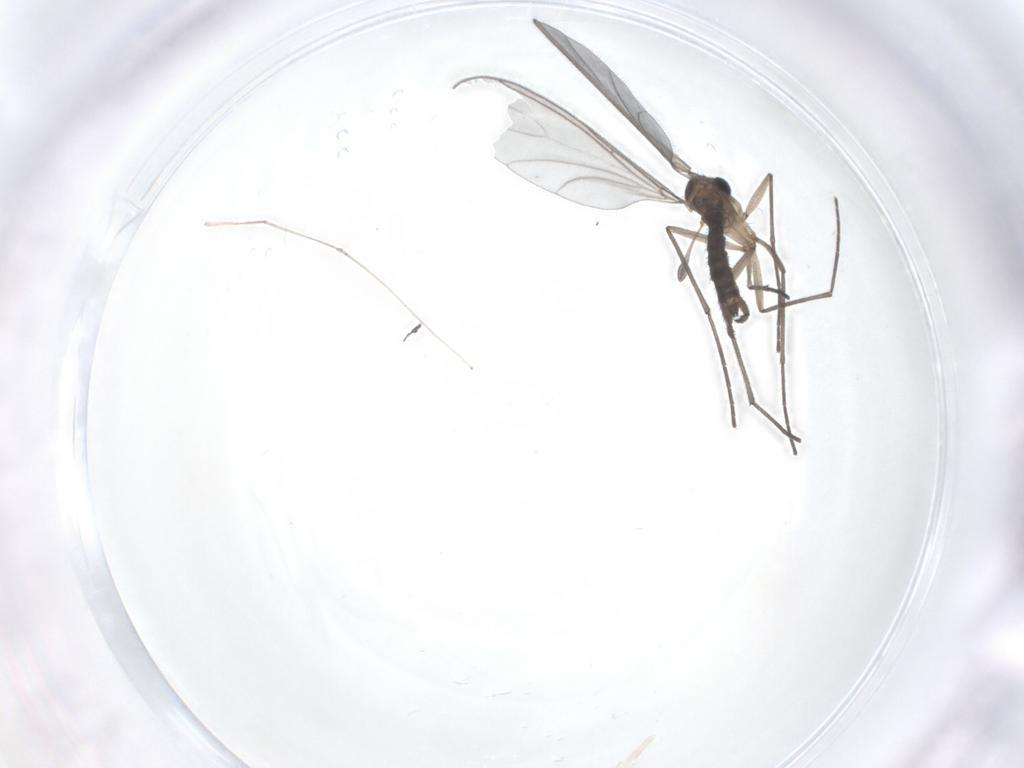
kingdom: Animalia
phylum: Arthropoda
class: Insecta
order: Diptera
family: Sciaridae
